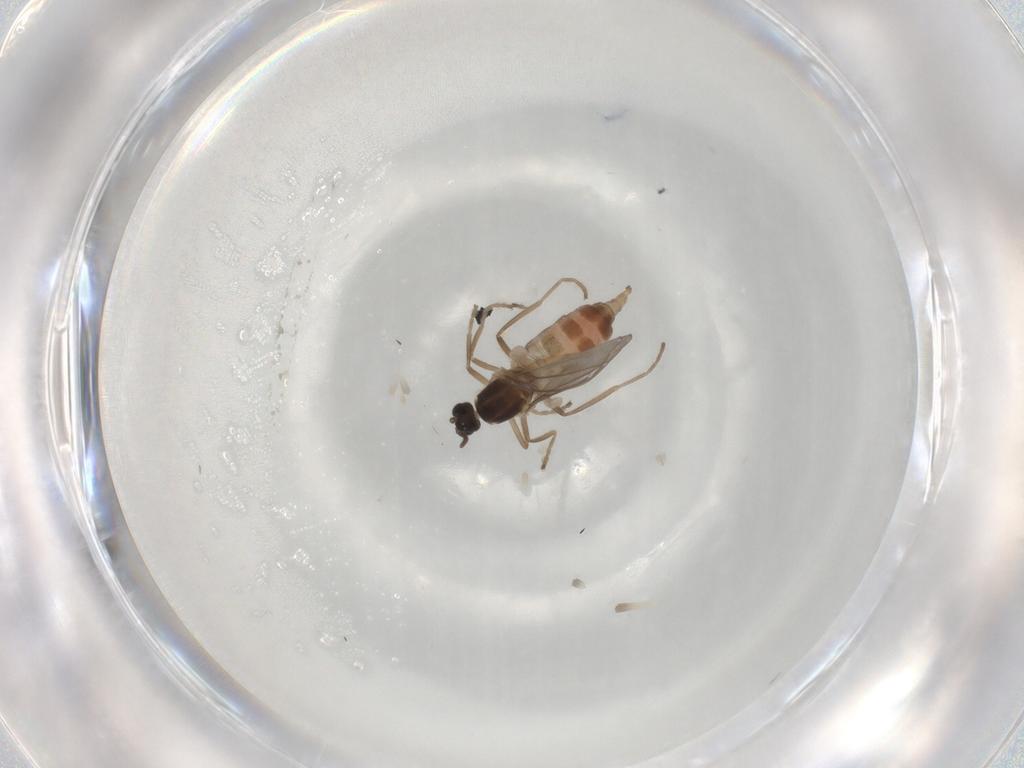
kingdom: Animalia
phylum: Arthropoda
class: Insecta
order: Diptera
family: Cecidomyiidae
